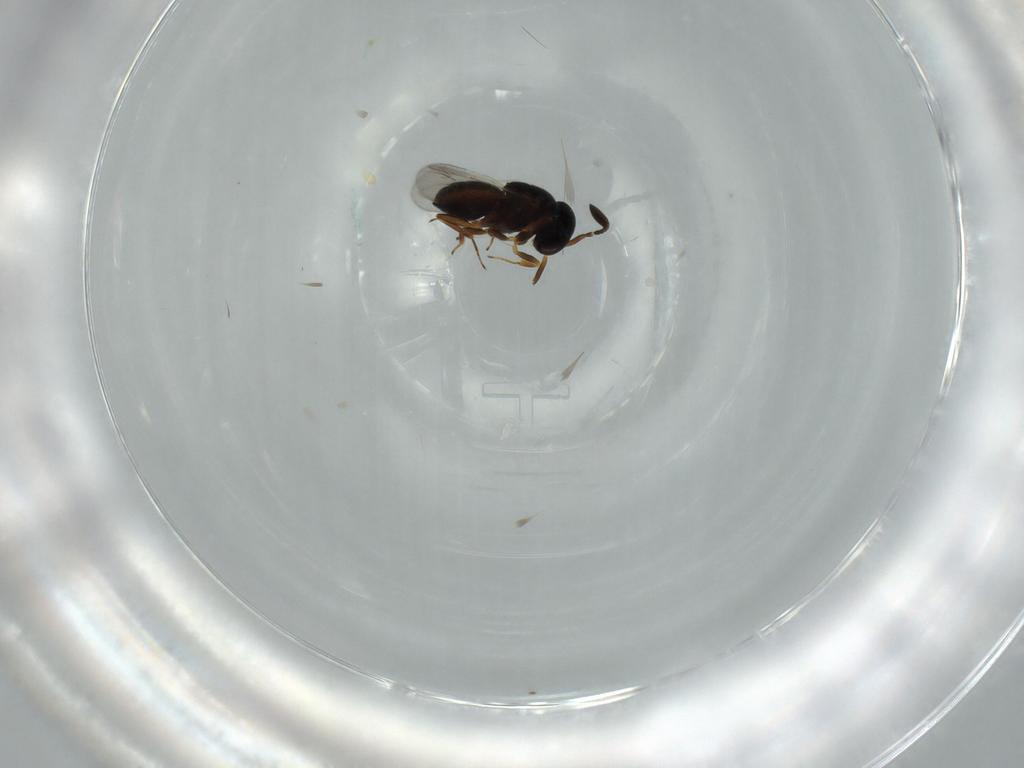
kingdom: Animalia
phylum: Arthropoda
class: Insecta
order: Hymenoptera
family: Scelionidae
